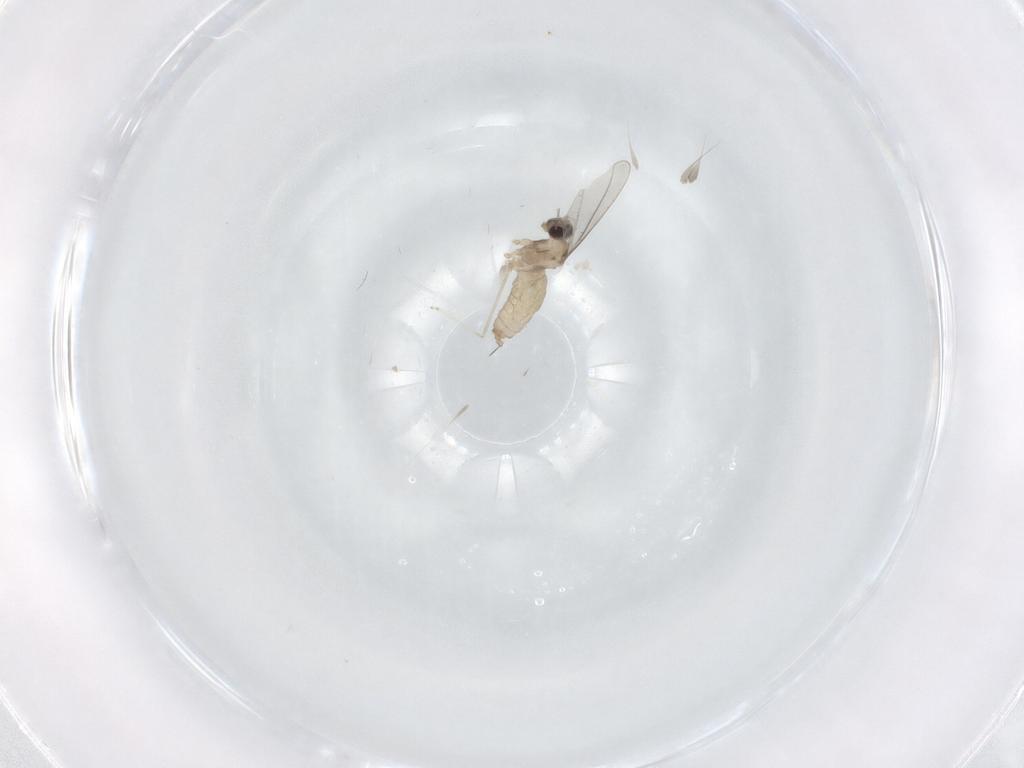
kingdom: Animalia
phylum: Arthropoda
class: Insecta
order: Diptera
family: Cecidomyiidae
